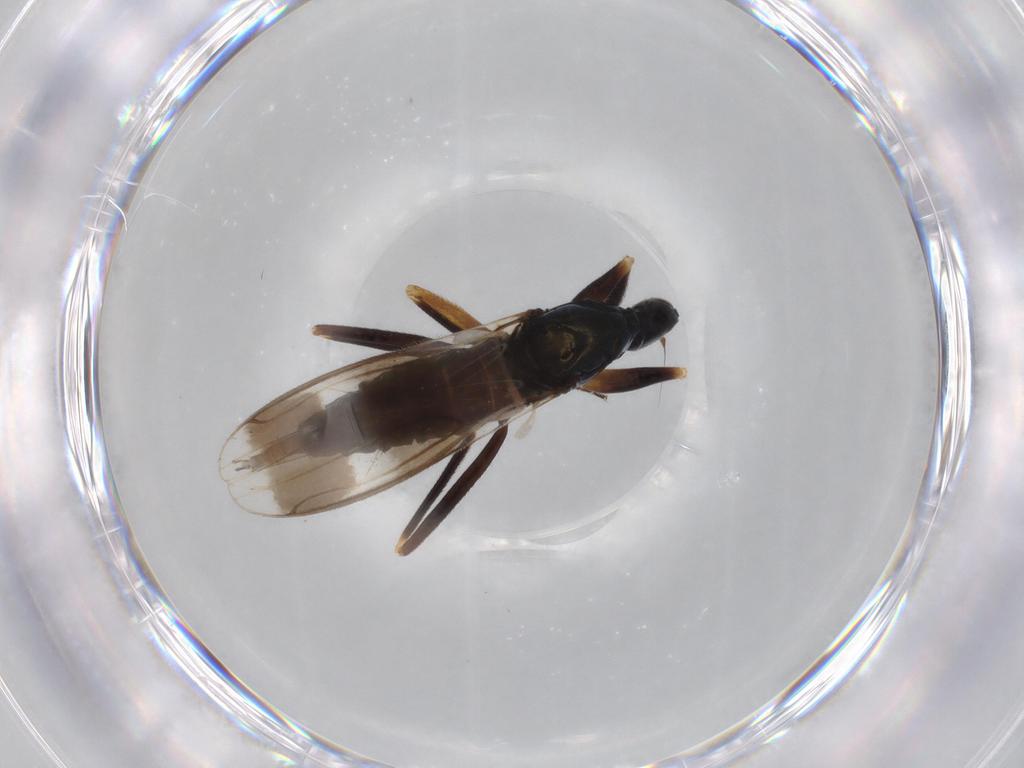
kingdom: Animalia
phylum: Arthropoda
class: Insecta
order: Diptera
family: Hybotidae
